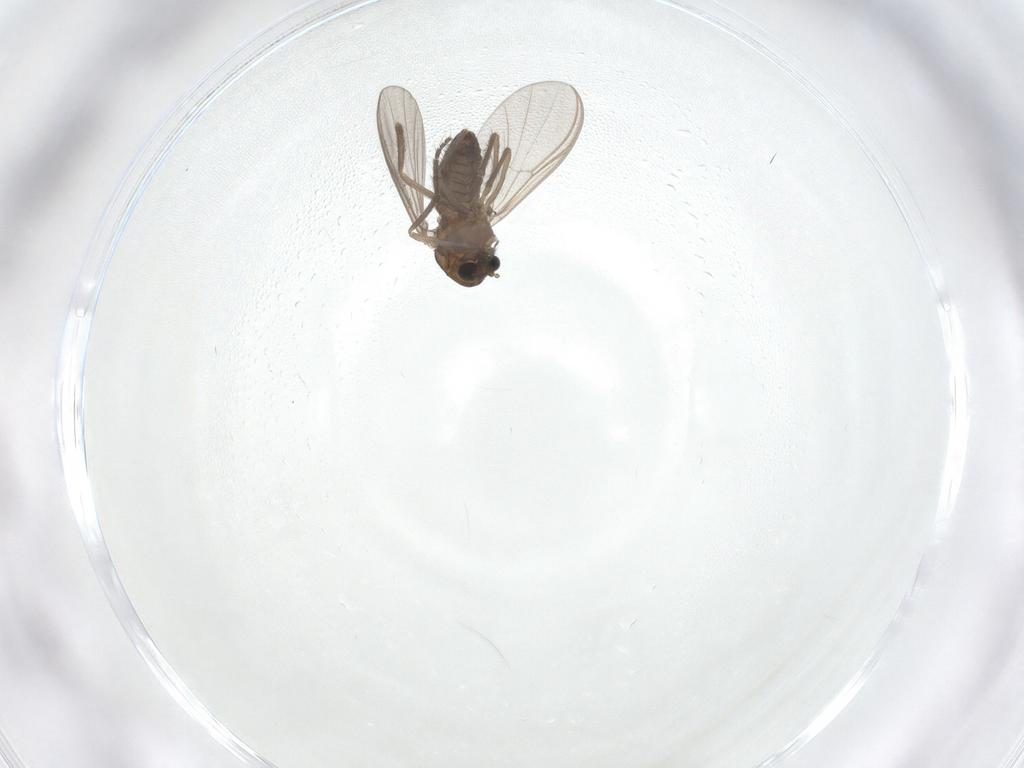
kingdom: Animalia
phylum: Arthropoda
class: Insecta
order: Diptera
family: Chironomidae
